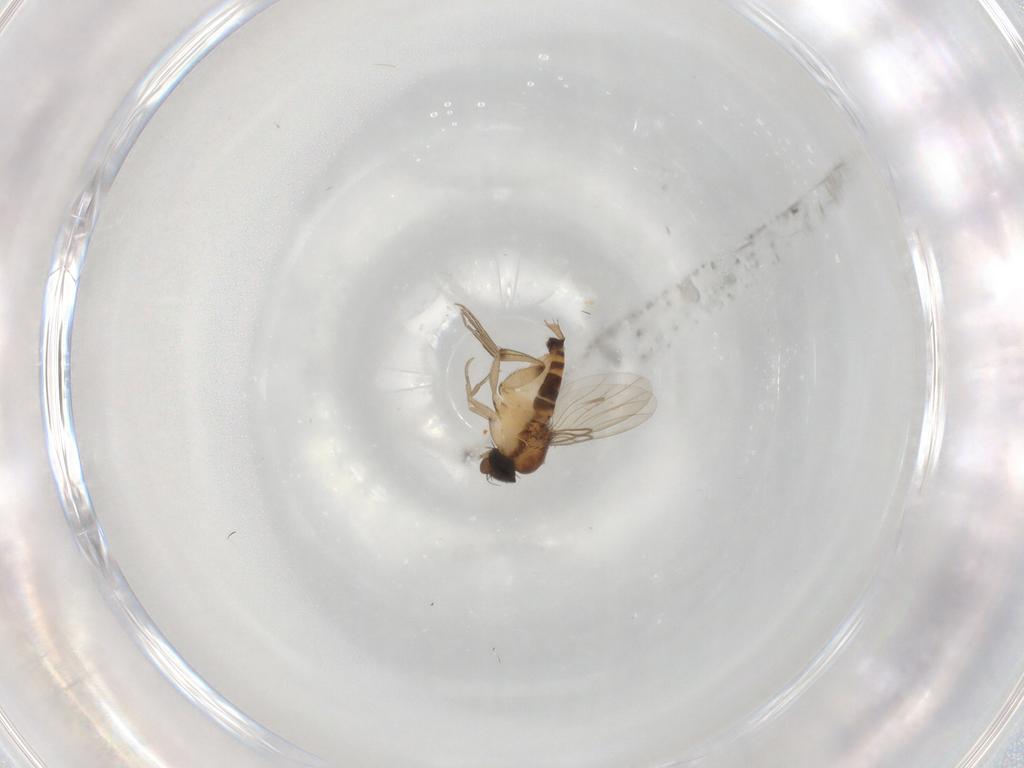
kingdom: Animalia
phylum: Arthropoda
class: Insecta
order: Diptera
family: Phoridae
